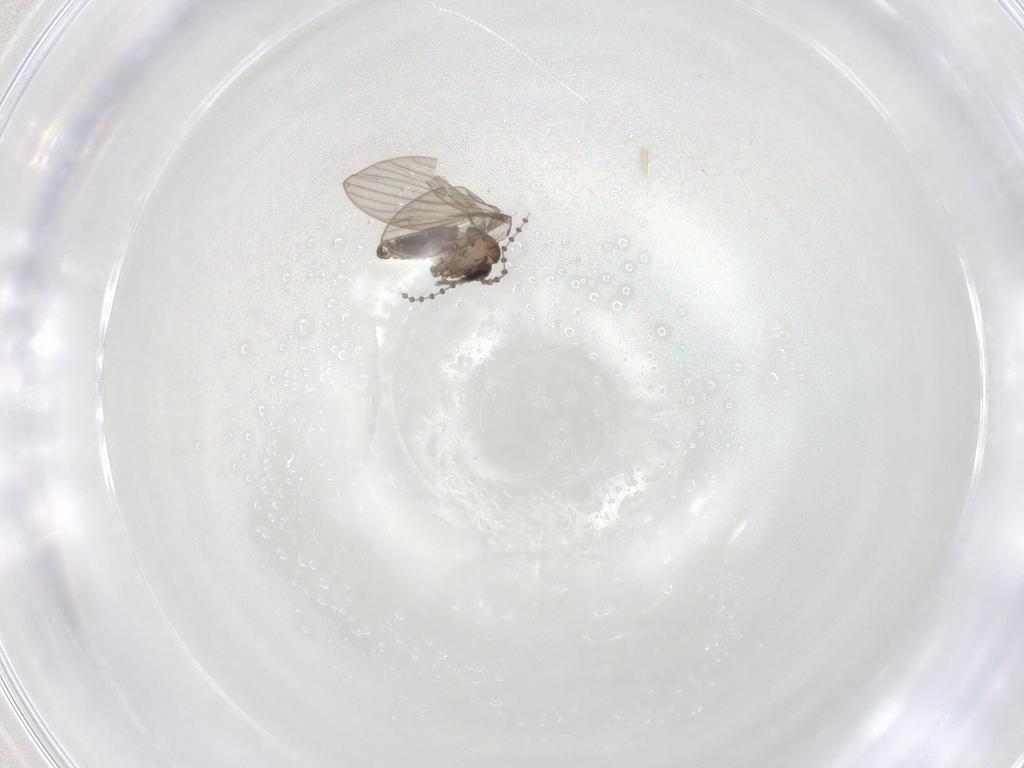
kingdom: Animalia
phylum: Arthropoda
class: Insecta
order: Diptera
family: Psychodidae
